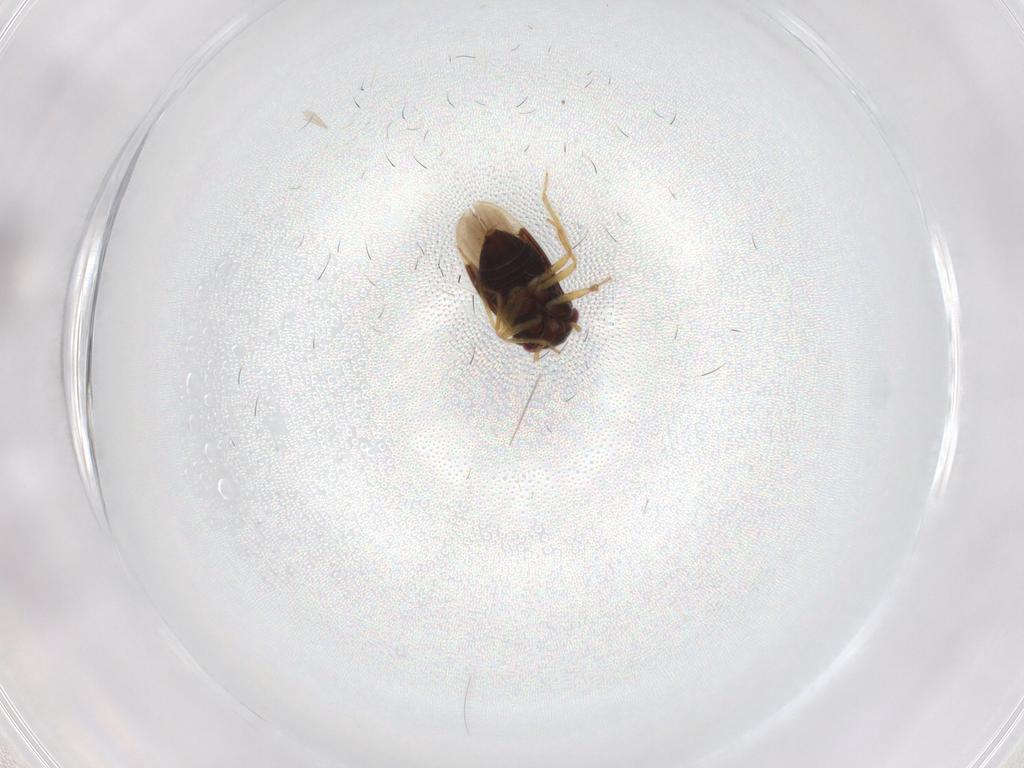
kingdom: Animalia
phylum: Arthropoda
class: Insecta
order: Hemiptera
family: Schizopteridae
